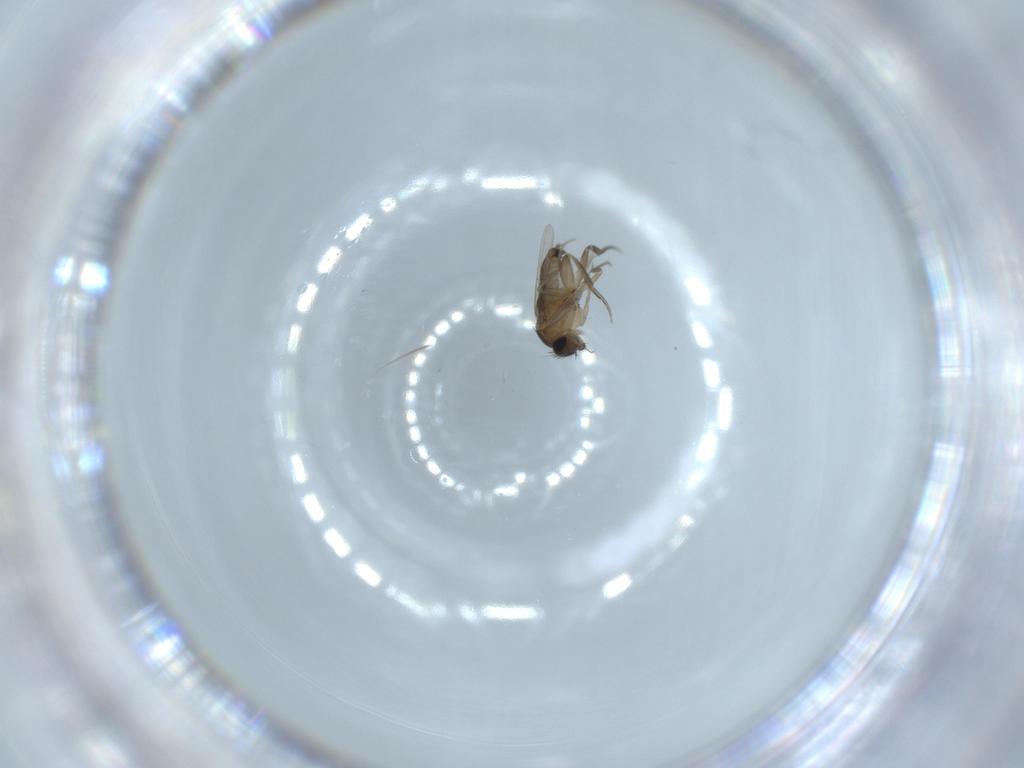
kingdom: Animalia
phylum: Arthropoda
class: Insecta
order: Diptera
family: Phoridae
